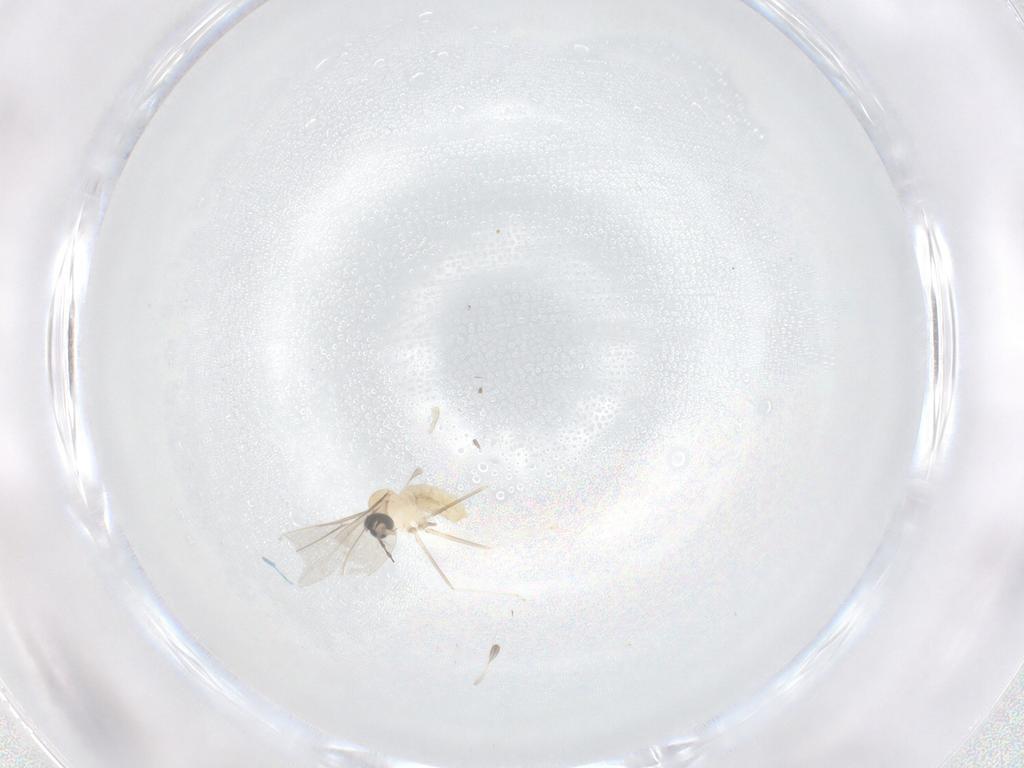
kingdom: Animalia
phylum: Arthropoda
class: Insecta
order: Diptera
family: Cecidomyiidae
